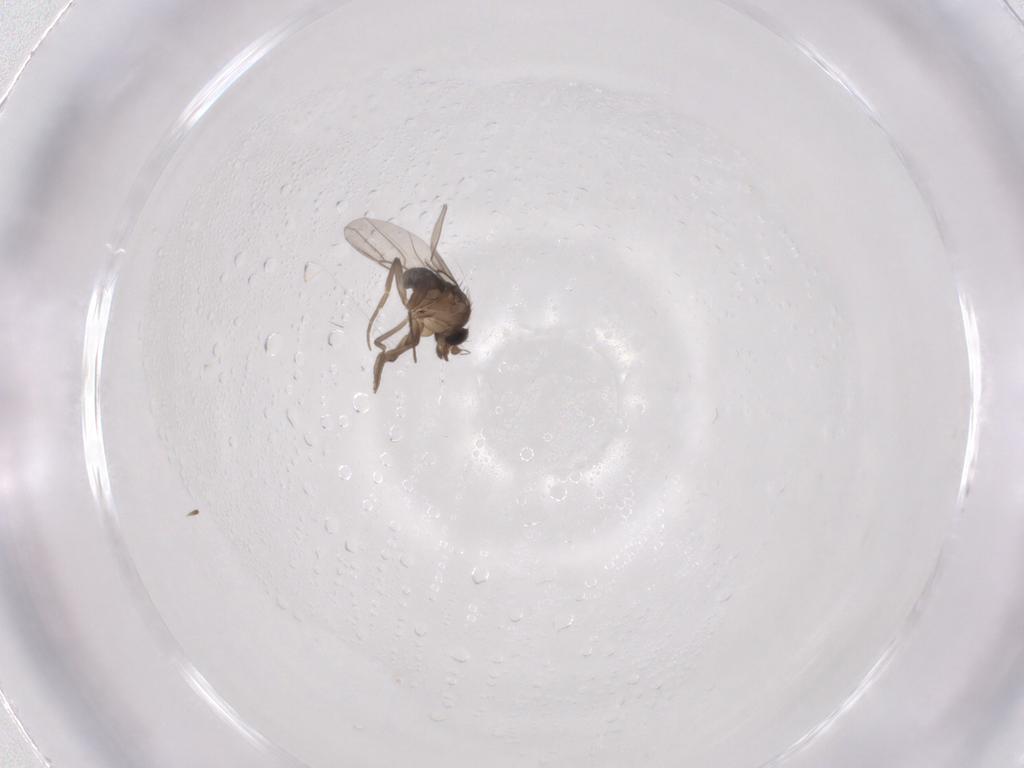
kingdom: Animalia
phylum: Arthropoda
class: Insecta
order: Diptera
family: Phoridae
